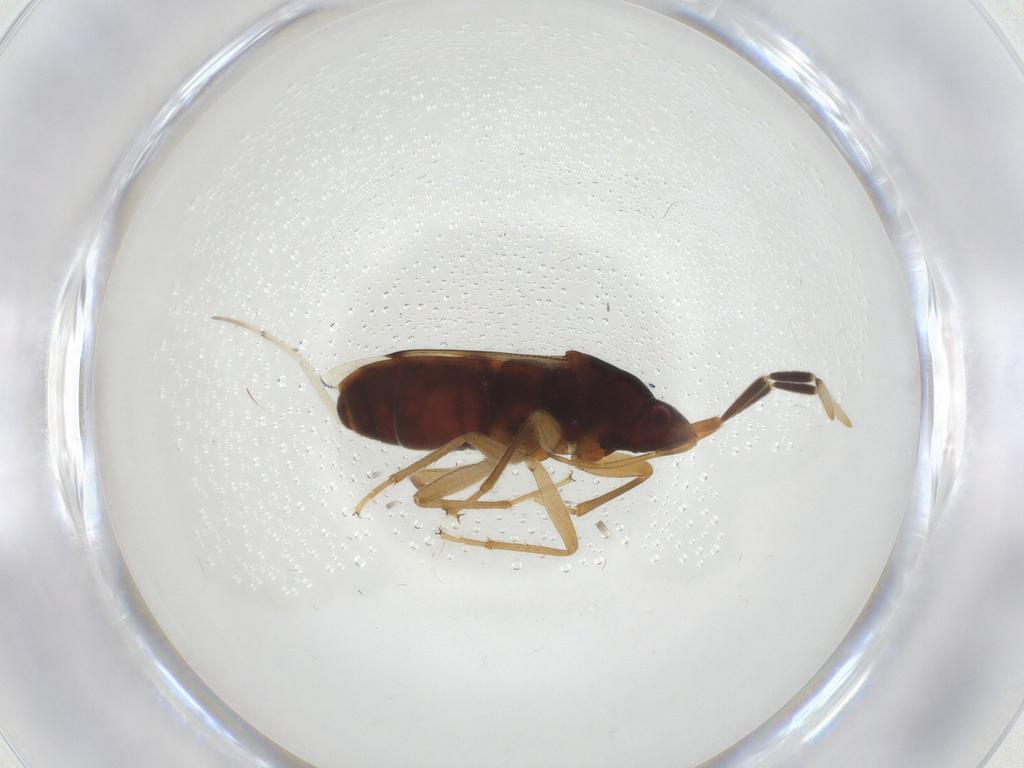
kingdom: Animalia
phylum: Arthropoda
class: Insecta
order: Hemiptera
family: Rhyparochromidae
